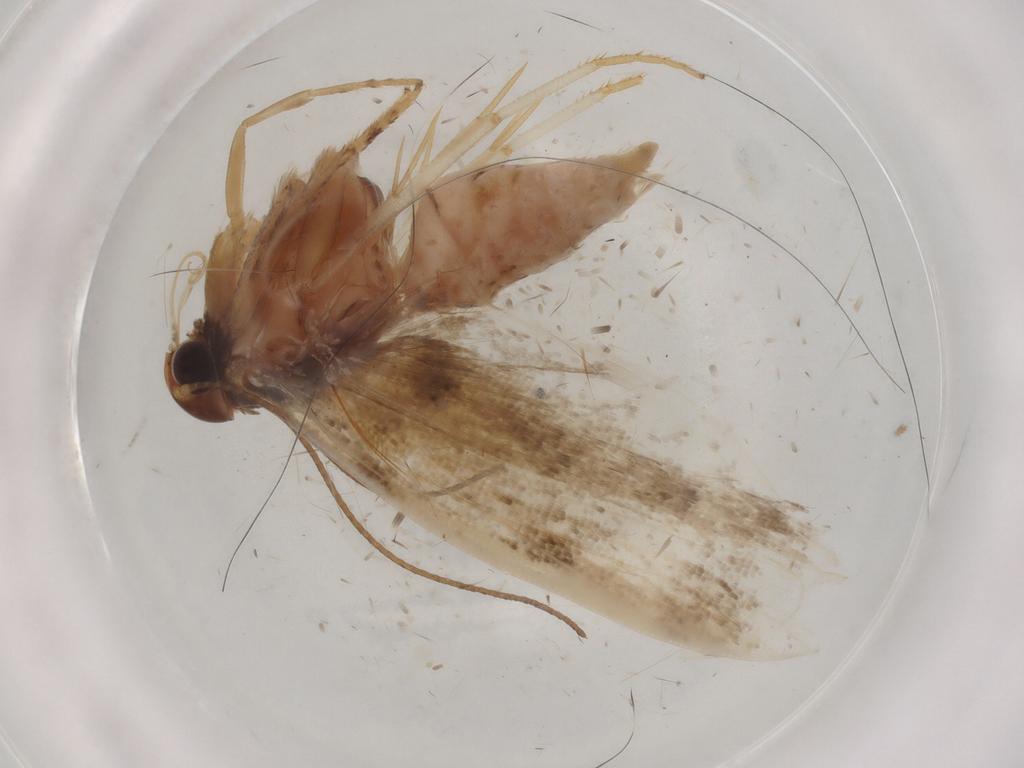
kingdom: Animalia
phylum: Arthropoda
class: Insecta
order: Lepidoptera
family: Gelechiidae
